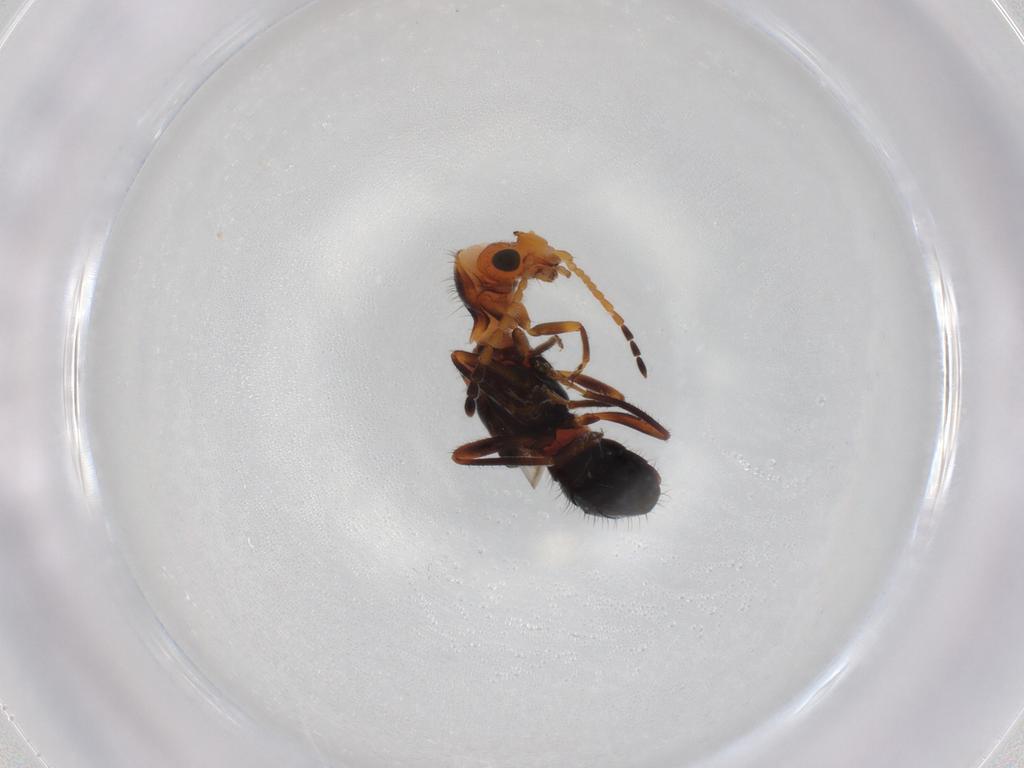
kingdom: Animalia
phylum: Arthropoda
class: Insecta
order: Coleoptera
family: Melyridae
